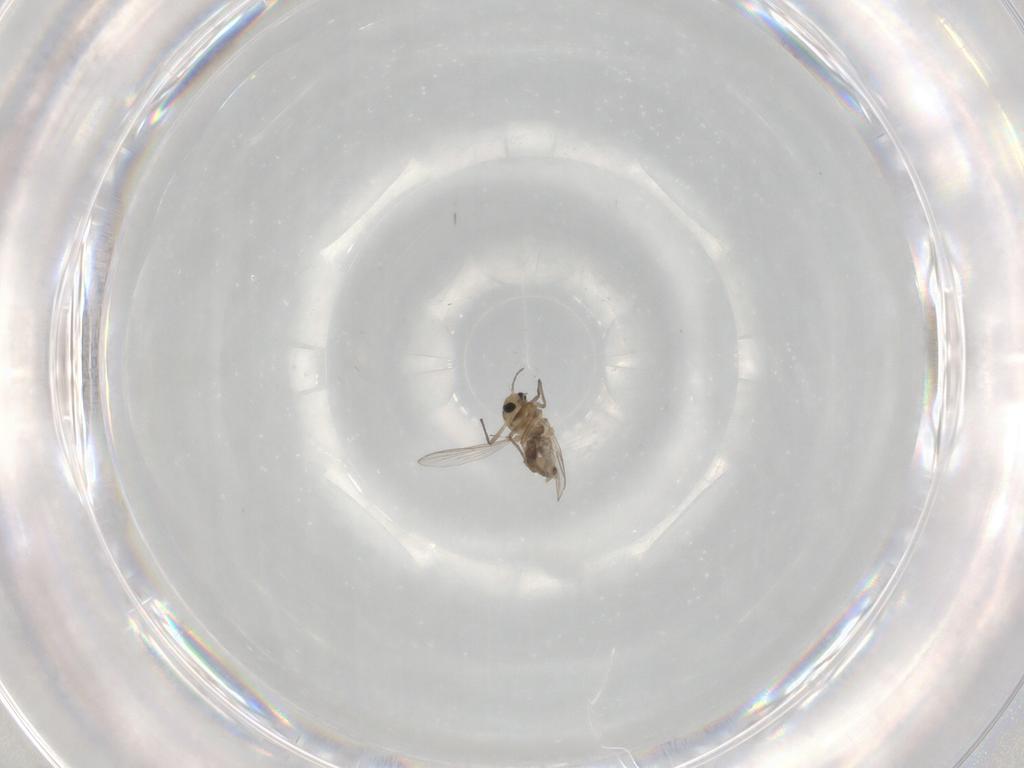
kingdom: Animalia
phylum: Arthropoda
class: Insecta
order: Diptera
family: Chironomidae
